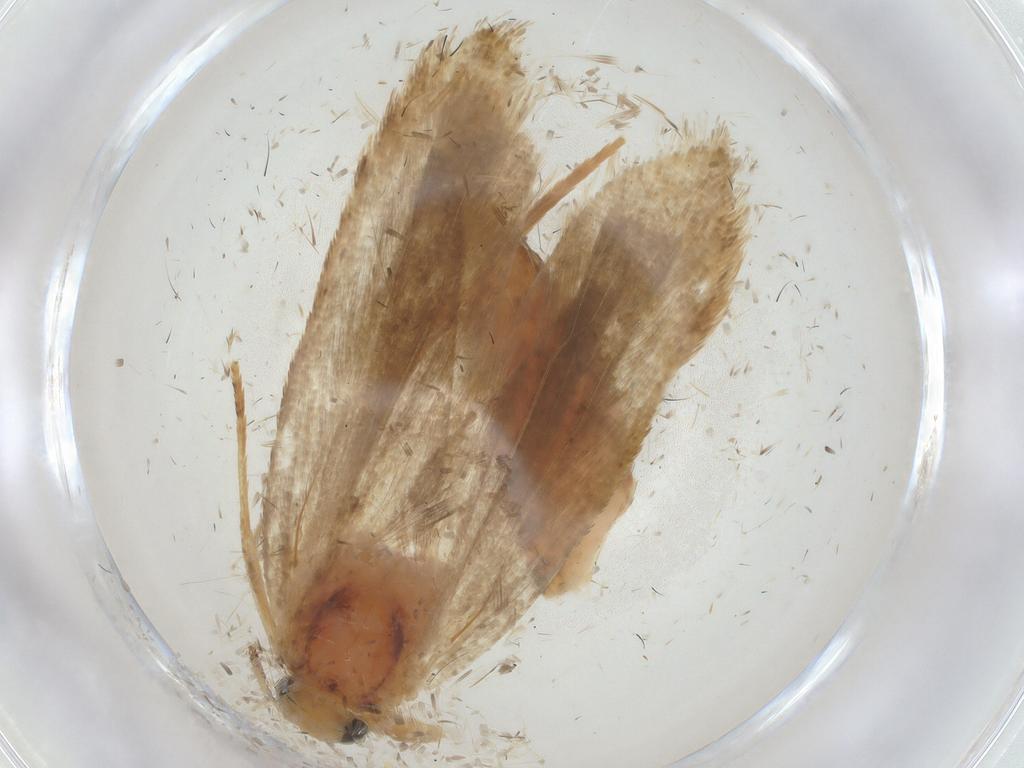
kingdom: Animalia
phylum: Arthropoda
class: Insecta
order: Lepidoptera
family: Gelechiidae
